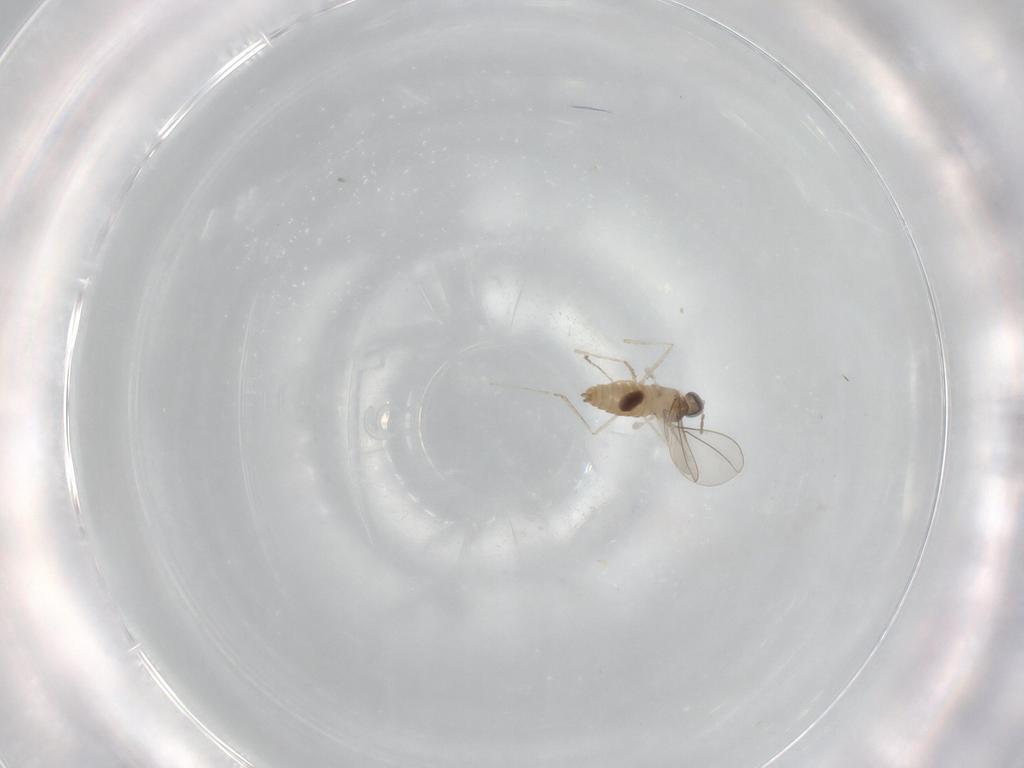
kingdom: Animalia
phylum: Arthropoda
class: Insecta
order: Diptera
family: Cecidomyiidae
